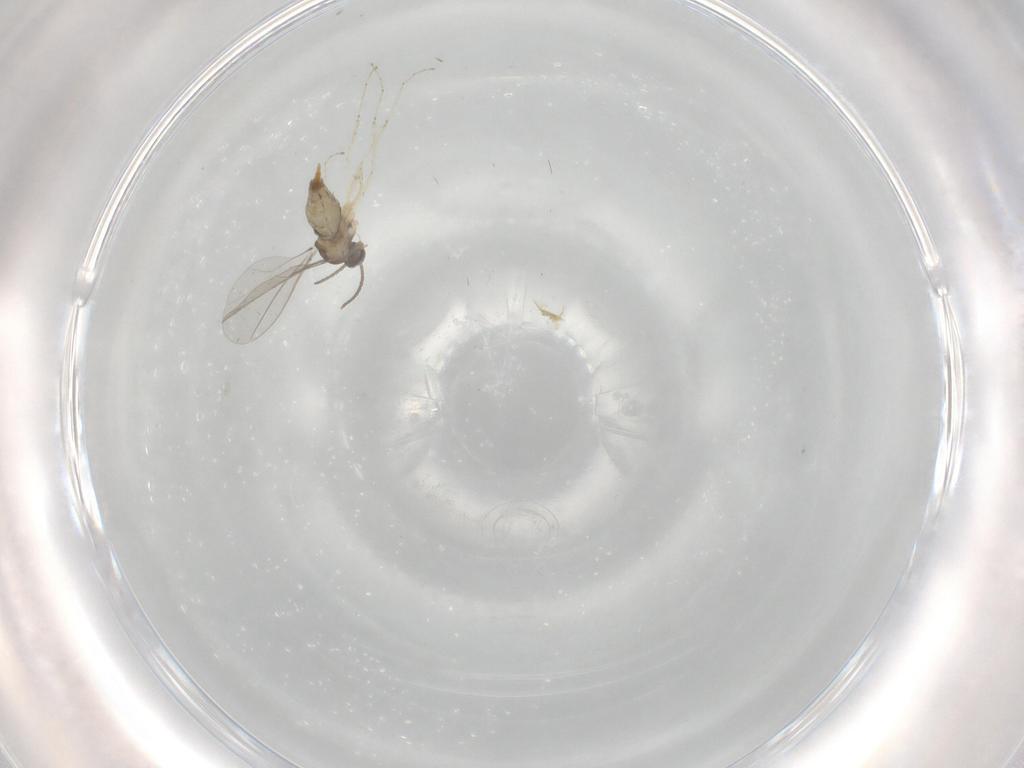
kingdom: Animalia
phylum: Arthropoda
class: Insecta
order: Diptera
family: Cecidomyiidae
